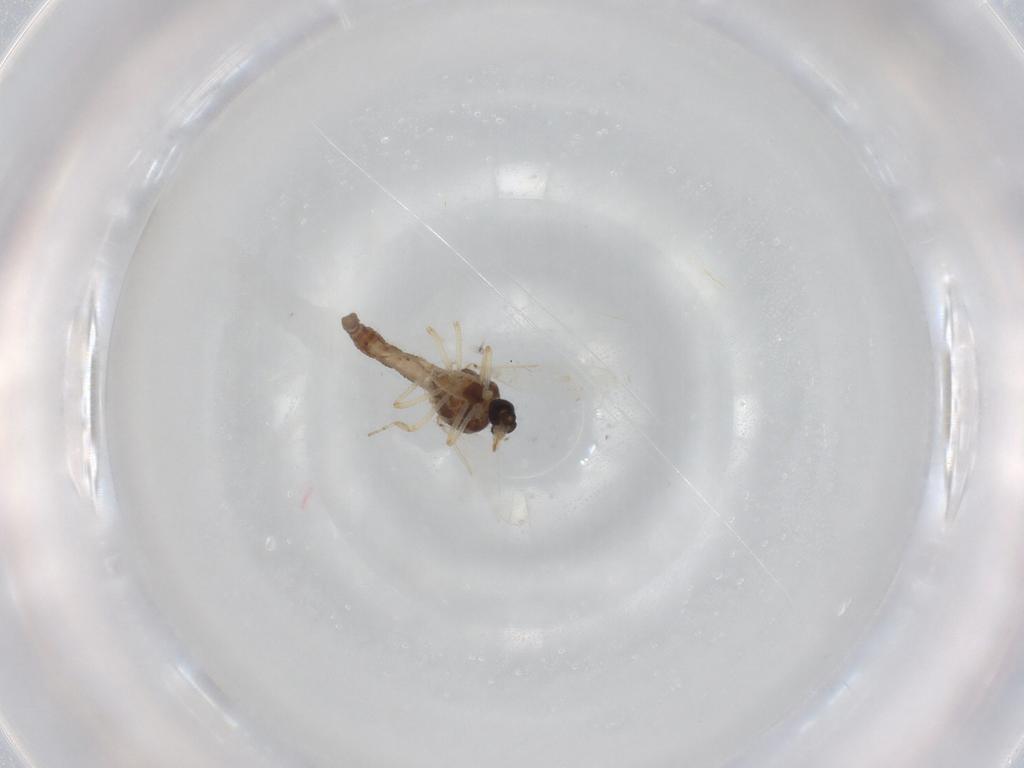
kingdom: Animalia
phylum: Arthropoda
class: Insecta
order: Diptera
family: Ceratopogonidae
